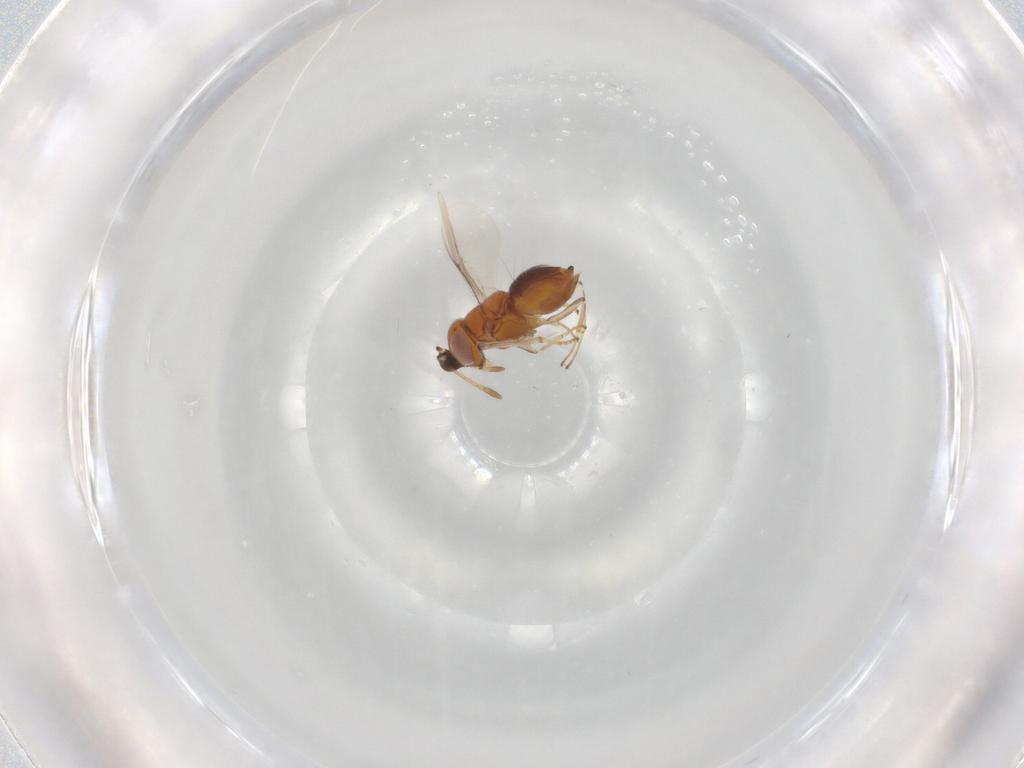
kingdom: Animalia
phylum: Arthropoda
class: Insecta
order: Hymenoptera
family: Encyrtidae
